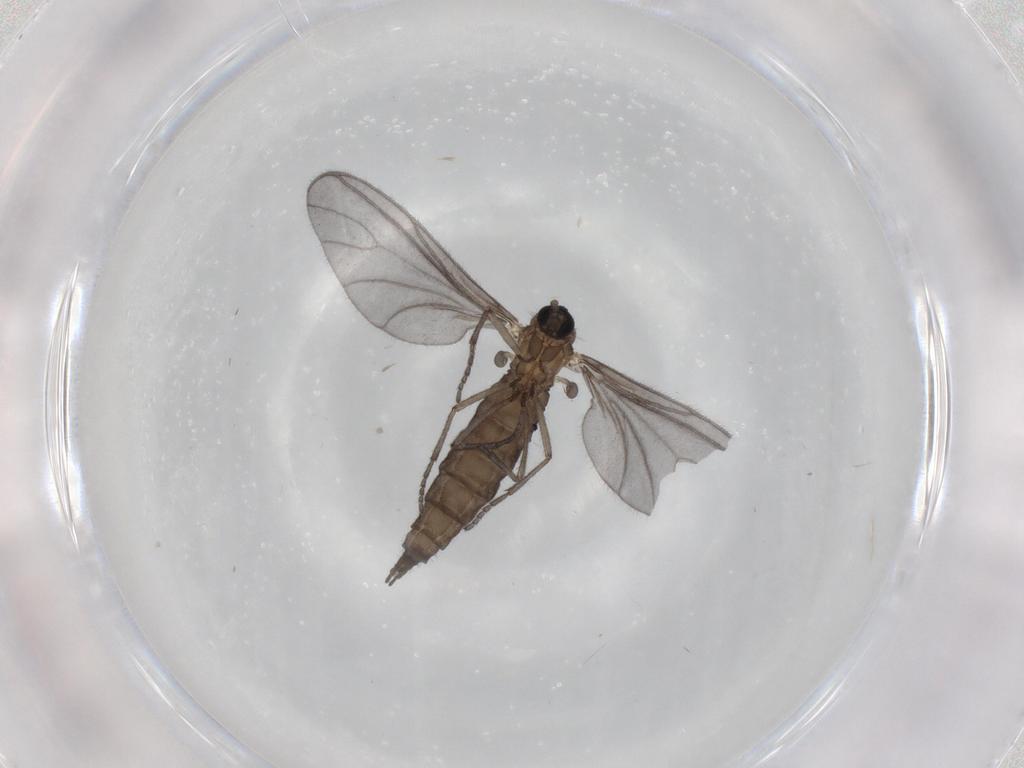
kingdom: Animalia
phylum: Arthropoda
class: Insecta
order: Diptera
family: Sciaridae
